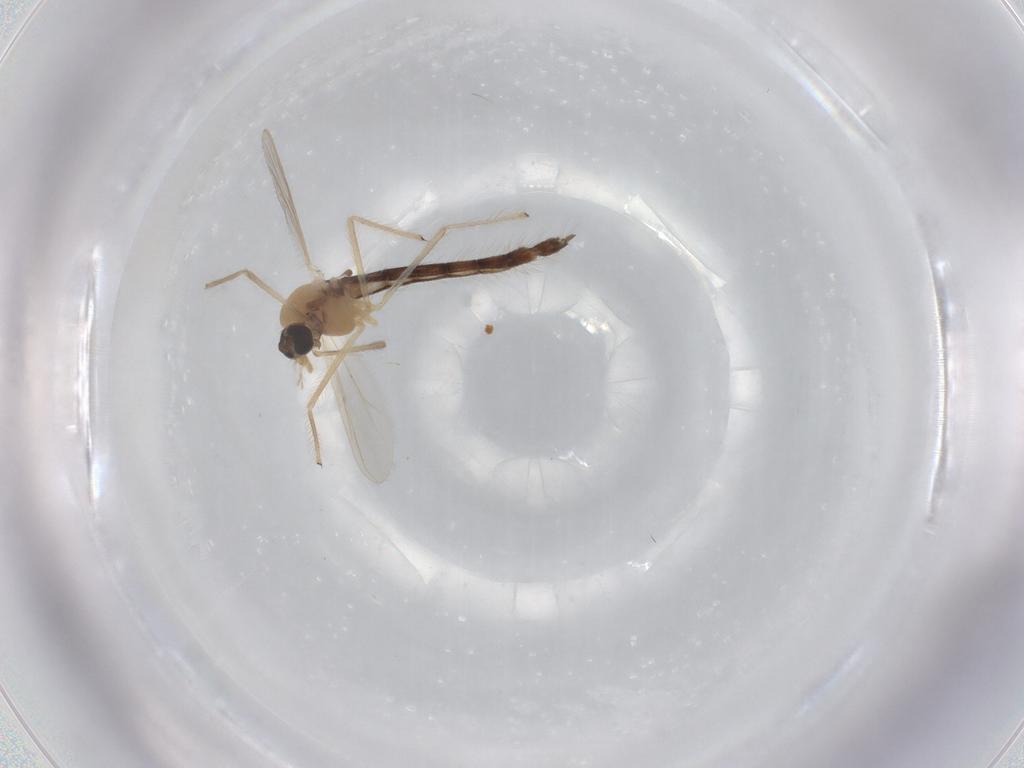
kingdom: Animalia
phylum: Arthropoda
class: Insecta
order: Diptera
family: Chironomidae
